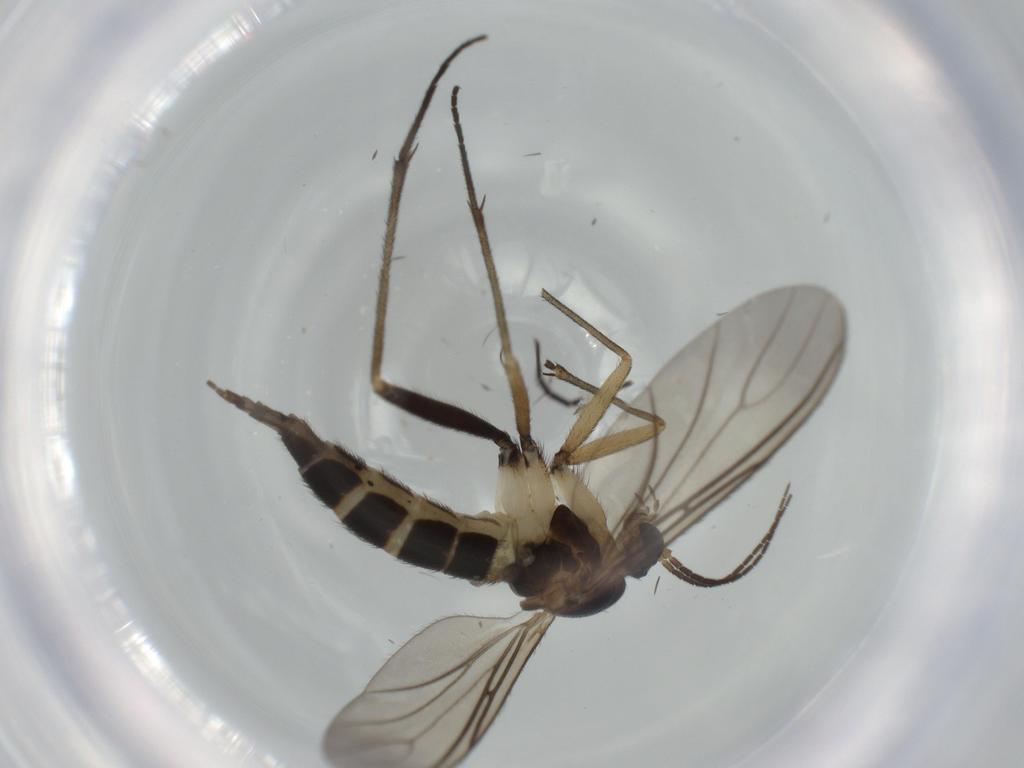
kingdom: Animalia
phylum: Arthropoda
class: Insecta
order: Diptera
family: Sciaridae
